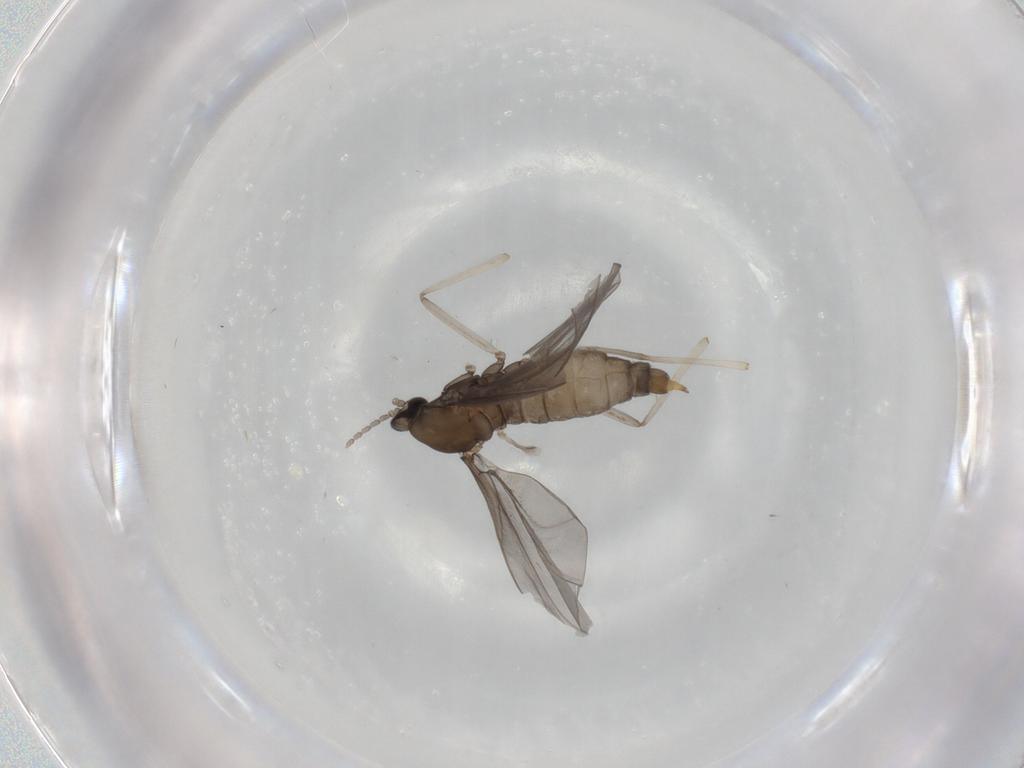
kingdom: Animalia
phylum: Arthropoda
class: Insecta
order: Diptera
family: Cecidomyiidae
